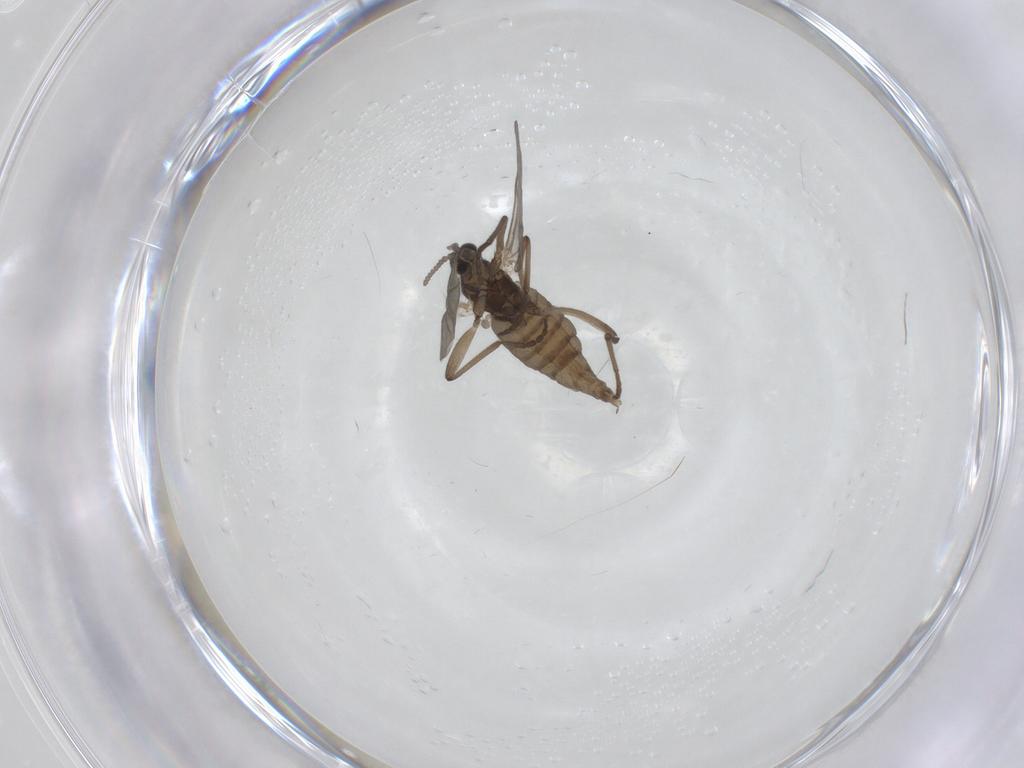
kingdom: Animalia
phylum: Arthropoda
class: Insecta
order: Diptera
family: Cecidomyiidae
